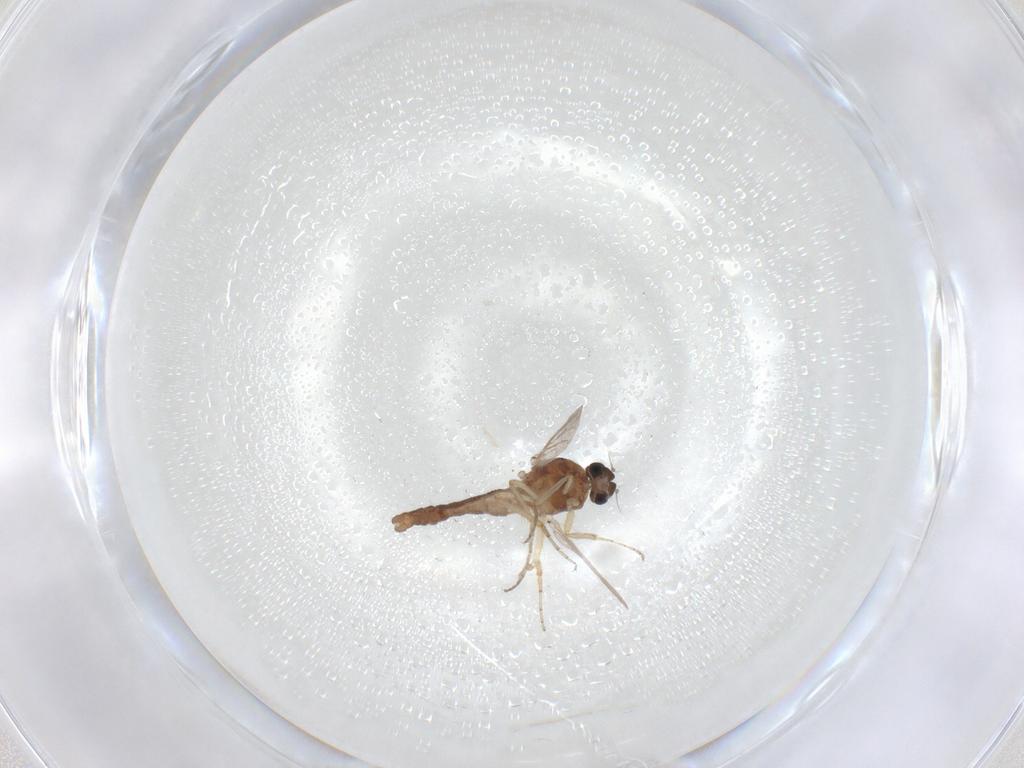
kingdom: Animalia
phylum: Arthropoda
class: Insecta
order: Diptera
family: Ceratopogonidae
